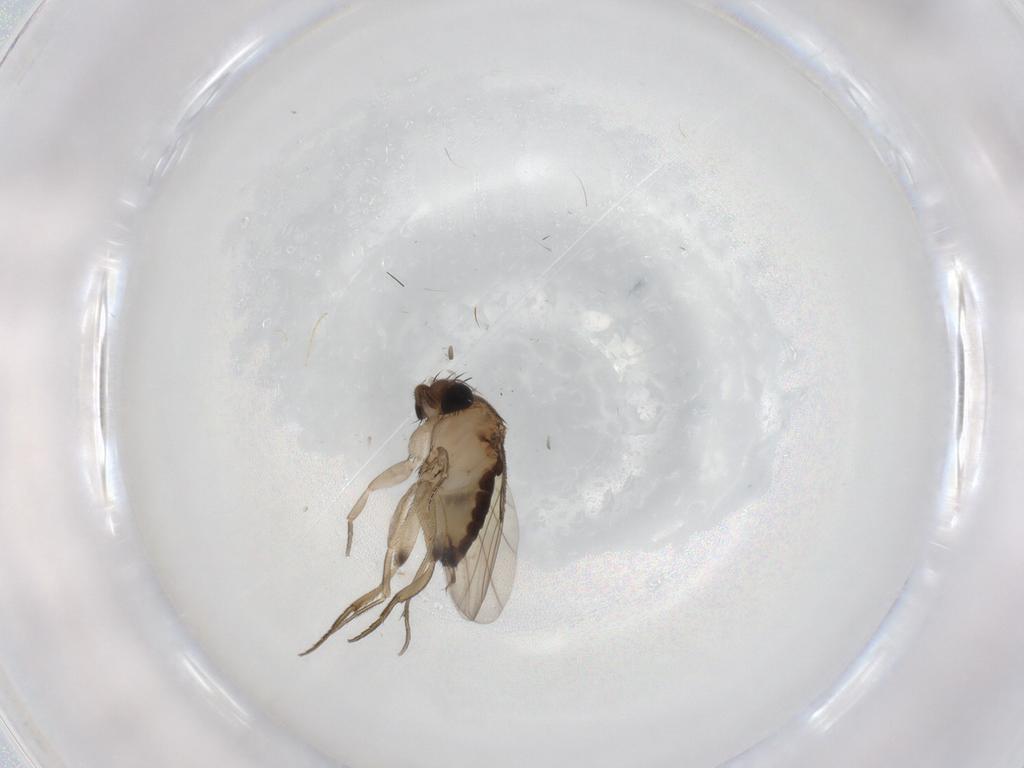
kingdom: Animalia
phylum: Arthropoda
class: Insecta
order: Diptera
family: Phoridae
